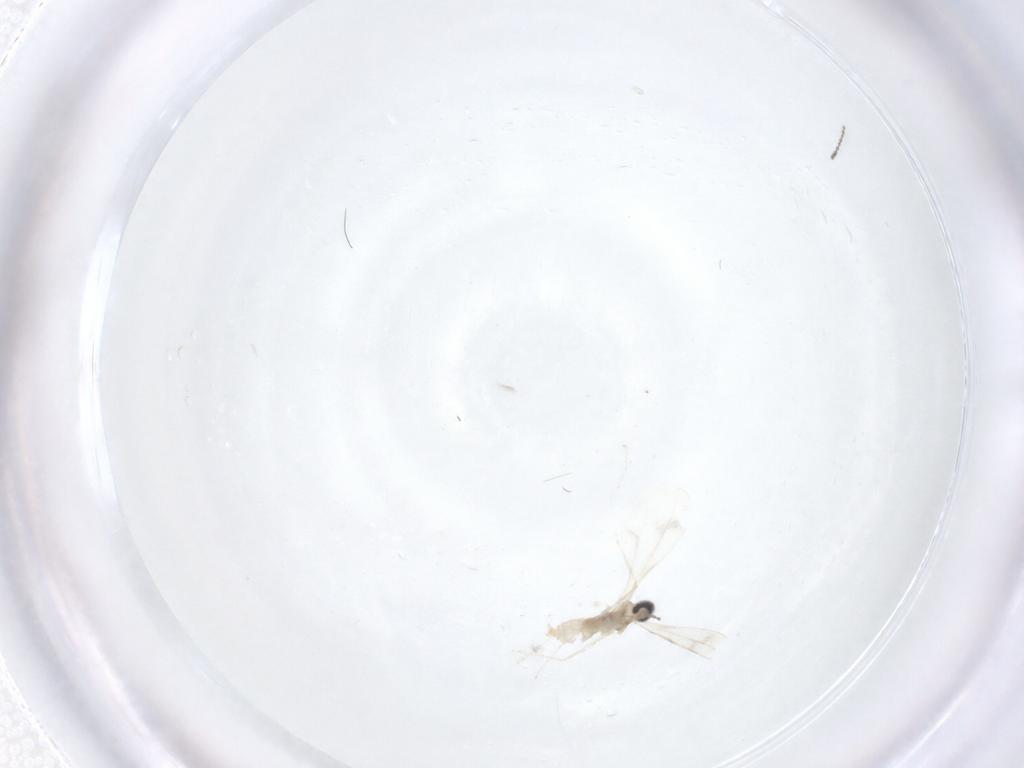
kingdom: Animalia
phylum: Arthropoda
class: Insecta
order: Diptera
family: Cecidomyiidae
